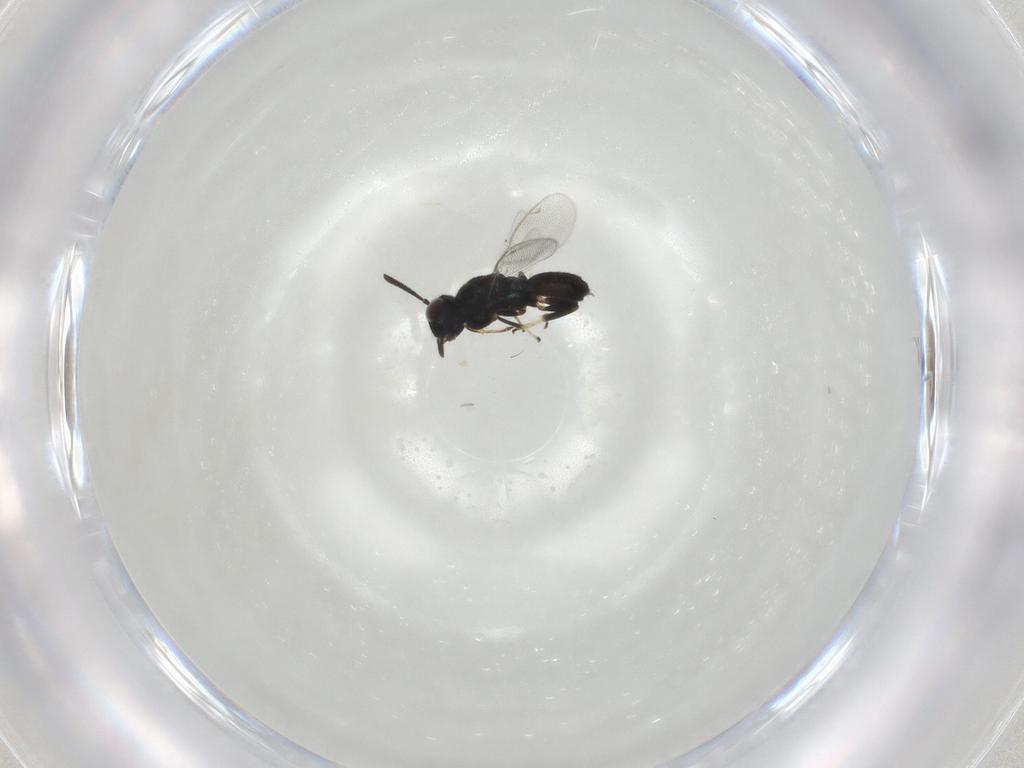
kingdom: Animalia
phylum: Arthropoda
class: Insecta
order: Hymenoptera
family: Eupelmidae
